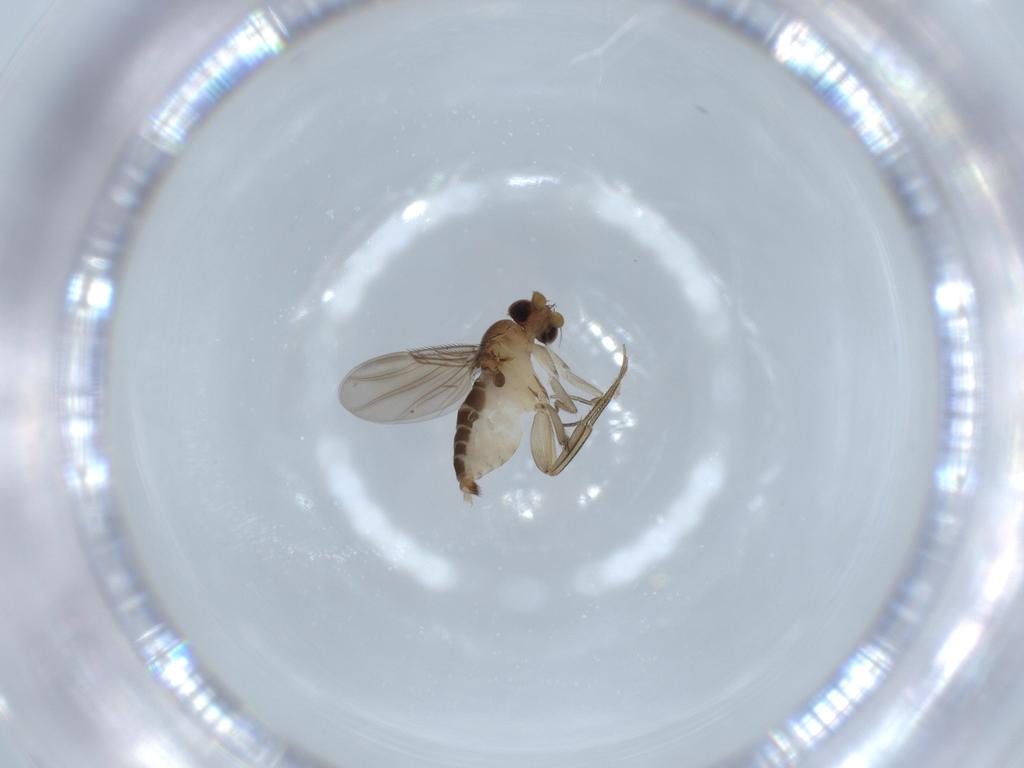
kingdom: Animalia
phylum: Arthropoda
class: Insecta
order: Diptera
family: Phoridae
